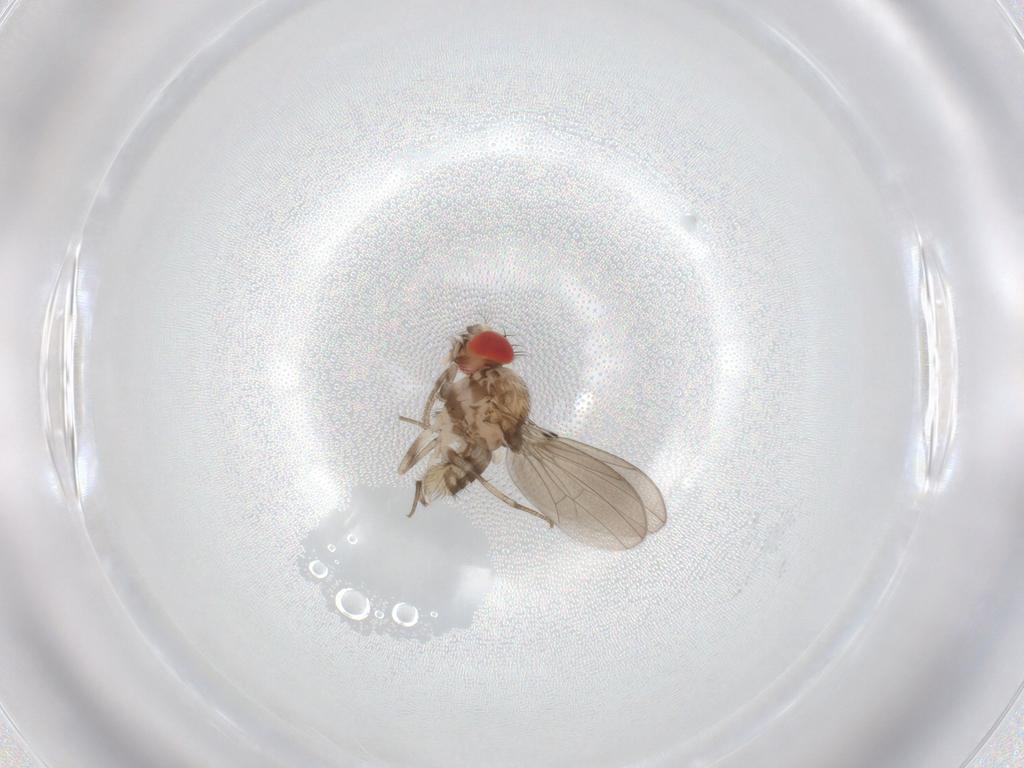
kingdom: Animalia
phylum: Arthropoda
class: Insecta
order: Diptera
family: Drosophilidae
